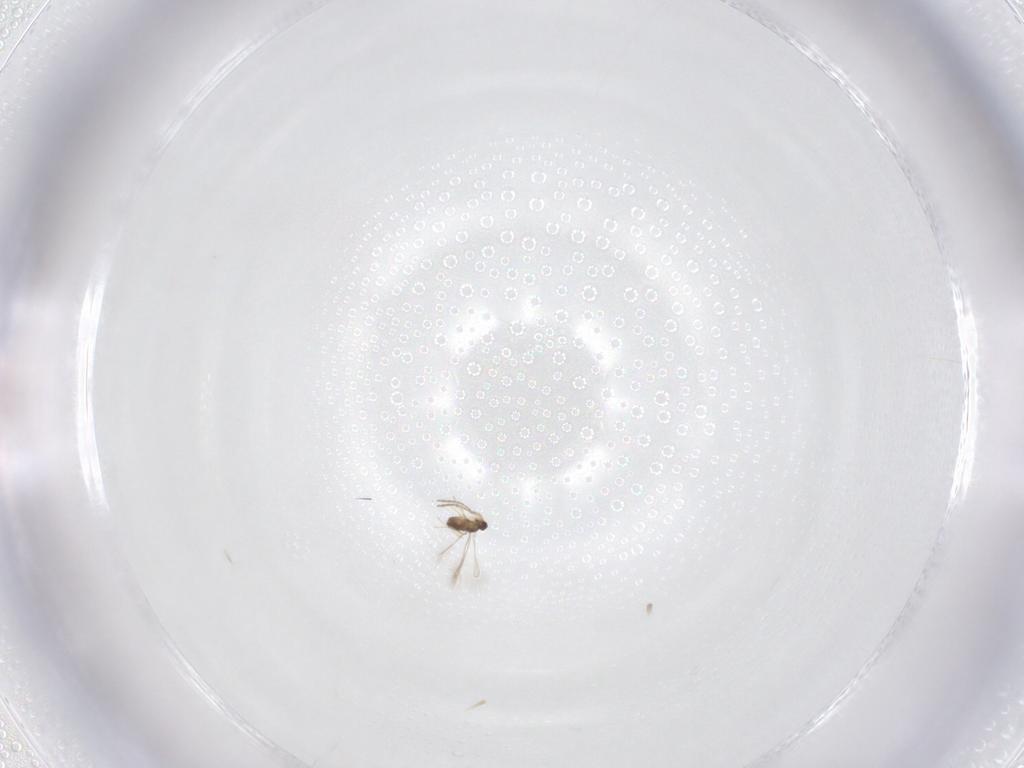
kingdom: Animalia
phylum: Arthropoda
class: Insecta
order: Hymenoptera
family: Mymaridae
